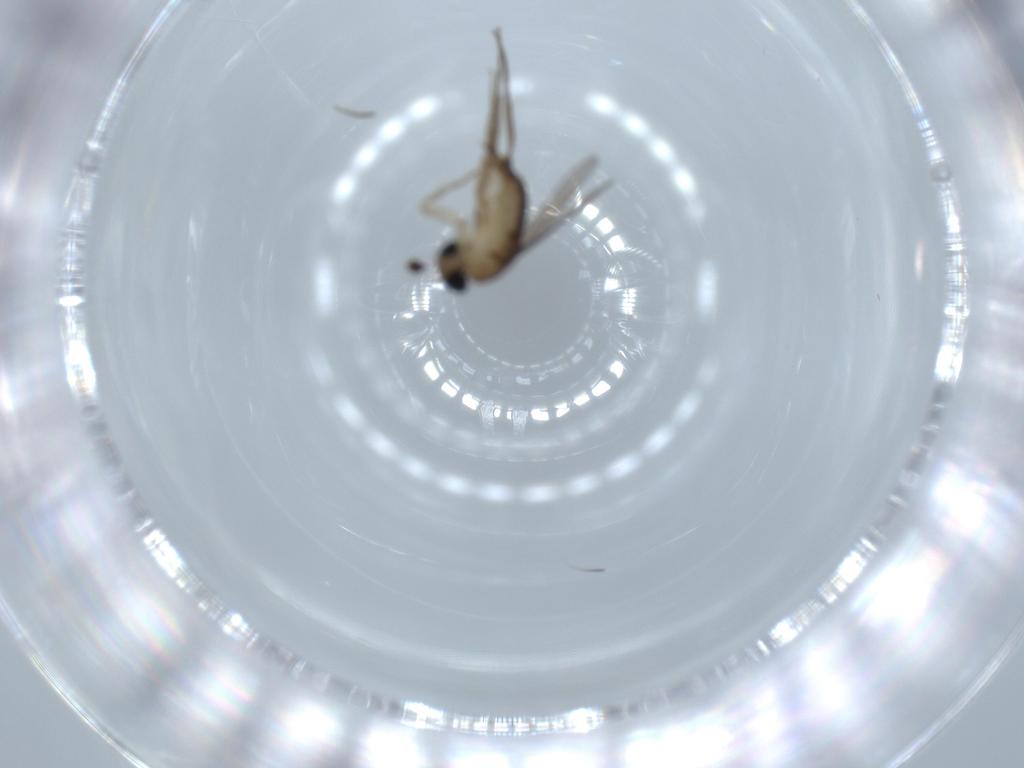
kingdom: Animalia
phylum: Arthropoda
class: Insecta
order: Diptera
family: Phoridae
